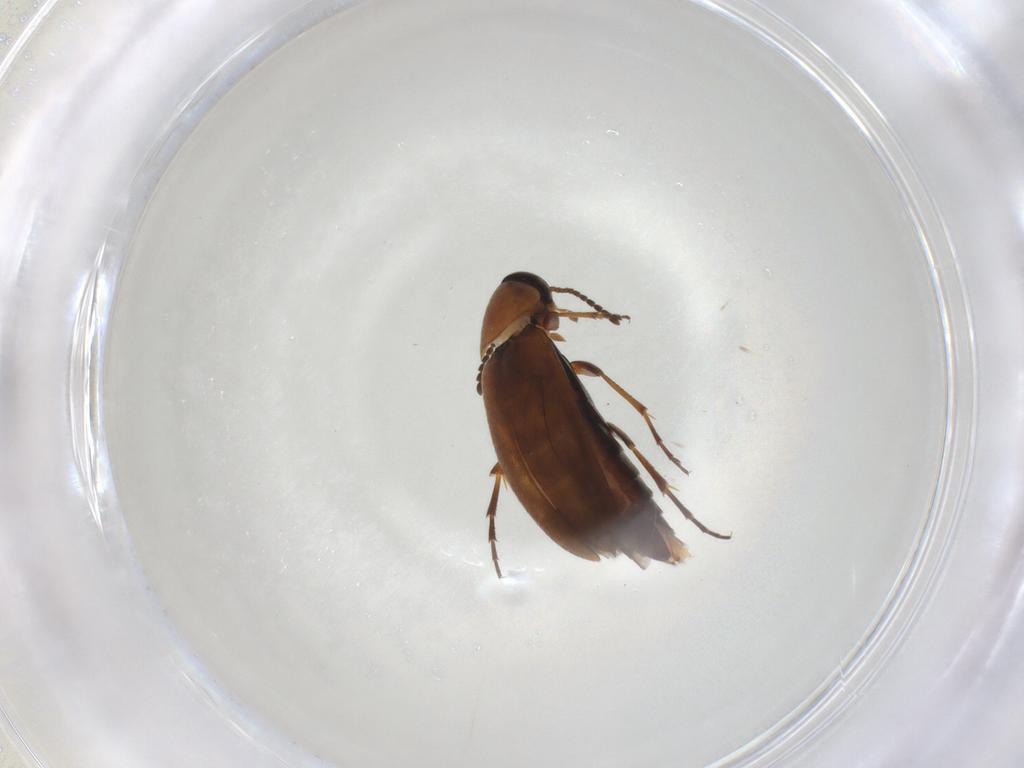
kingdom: Animalia
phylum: Arthropoda
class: Insecta
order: Coleoptera
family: Scraptiidae
